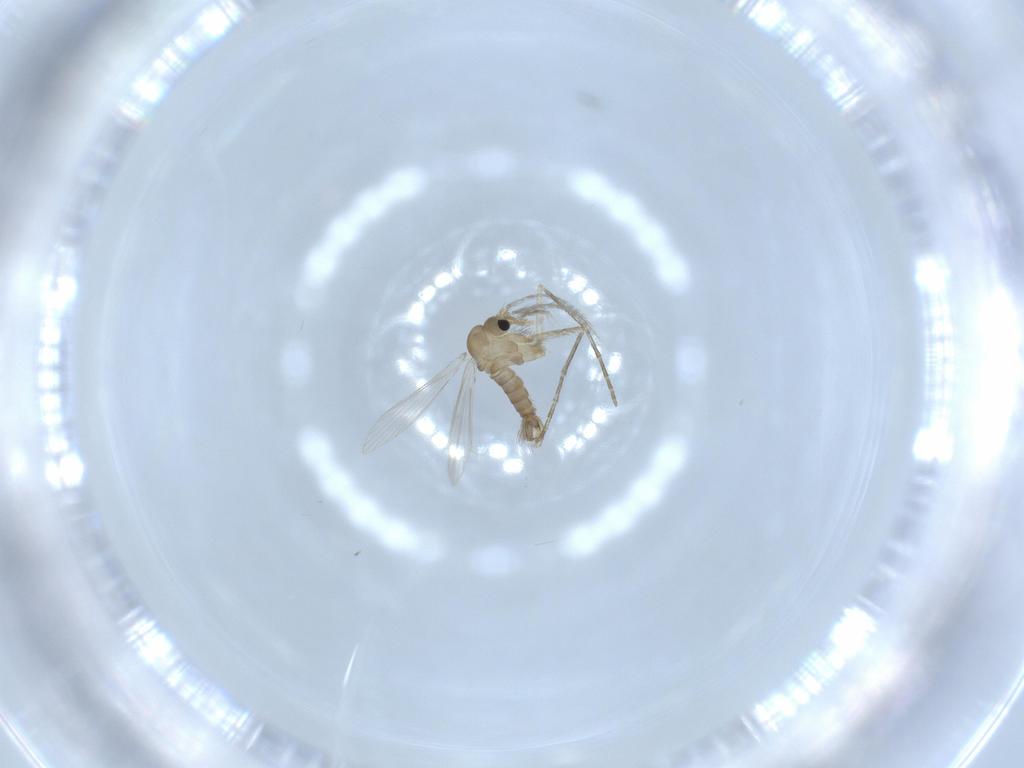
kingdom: Animalia
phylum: Arthropoda
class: Insecta
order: Diptera
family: Psychodidae
